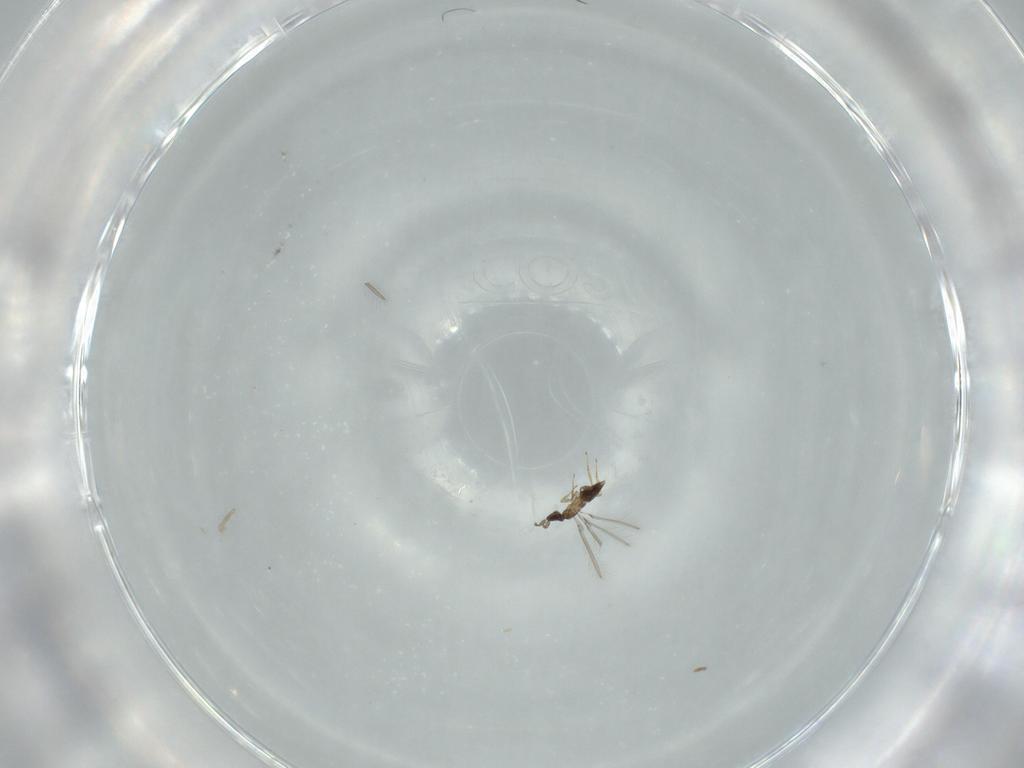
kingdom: Animalia
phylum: Arthropoda
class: Insecta
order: Hymenoptera
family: Mymaridae
